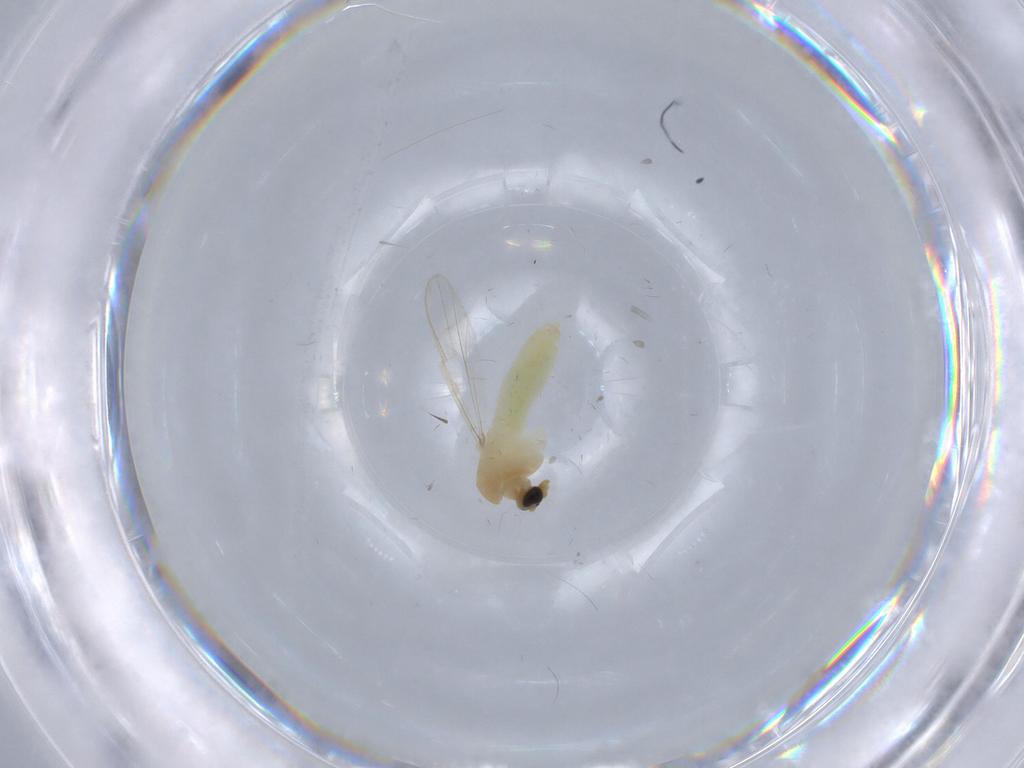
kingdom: Animalia
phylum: Arthropoda
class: Insecta
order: Diptera
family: Chironomidae
